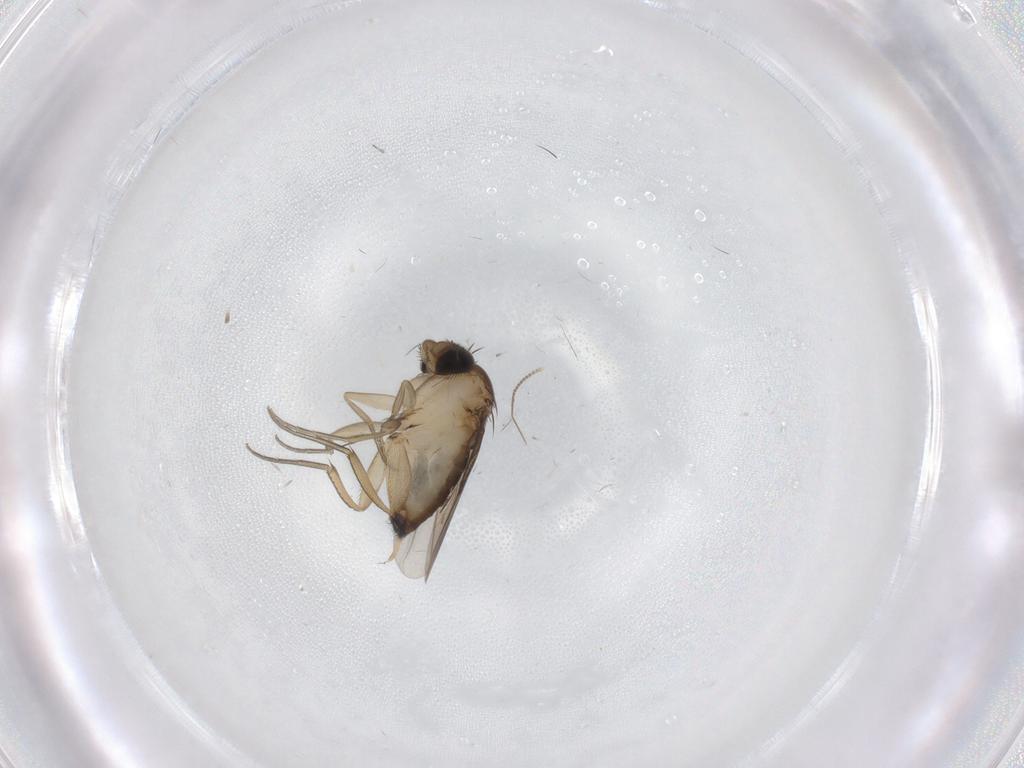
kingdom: Animalia
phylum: Arthropoda
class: Insecta
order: Diptera
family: Phoridae
